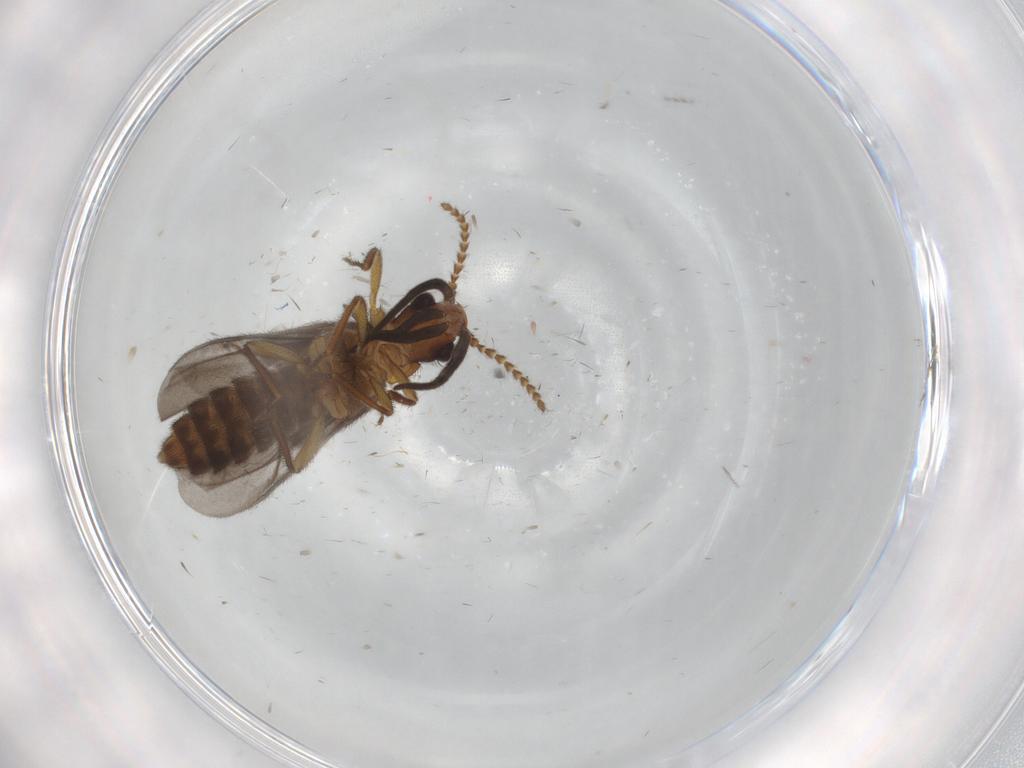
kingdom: Animalia
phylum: Arthropoda
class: Insecta
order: Coleoptera
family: Omethidae
